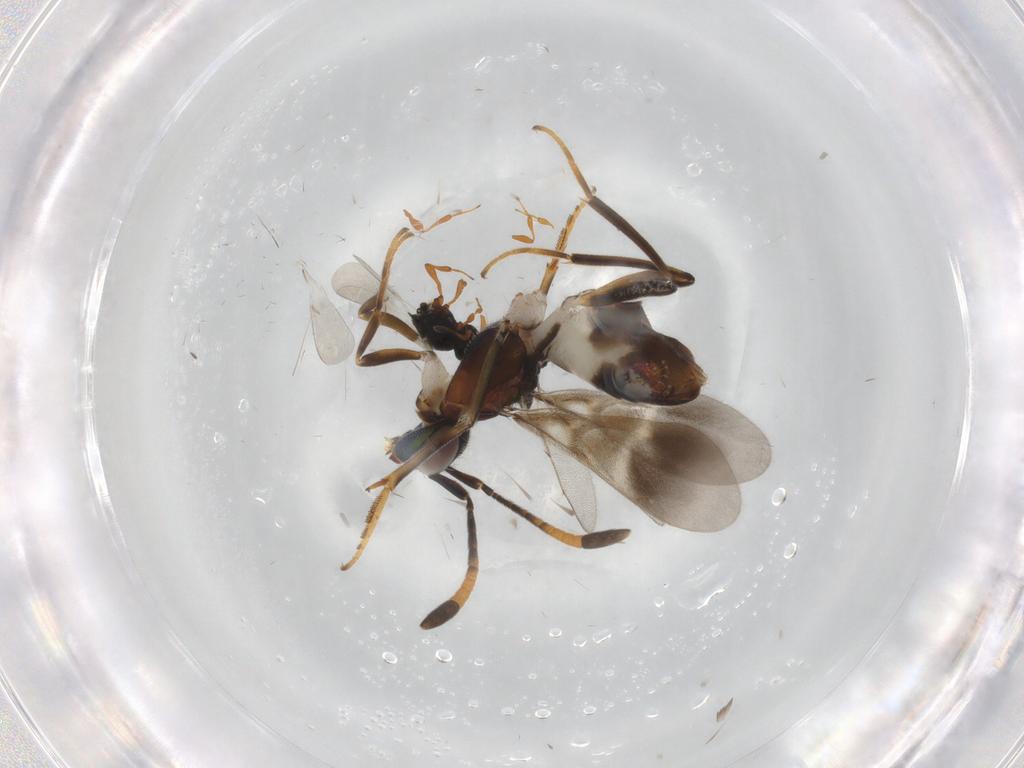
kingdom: Animalia
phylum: Arthropoda
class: Insecta
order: Hymenoptera
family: Platygastridae
